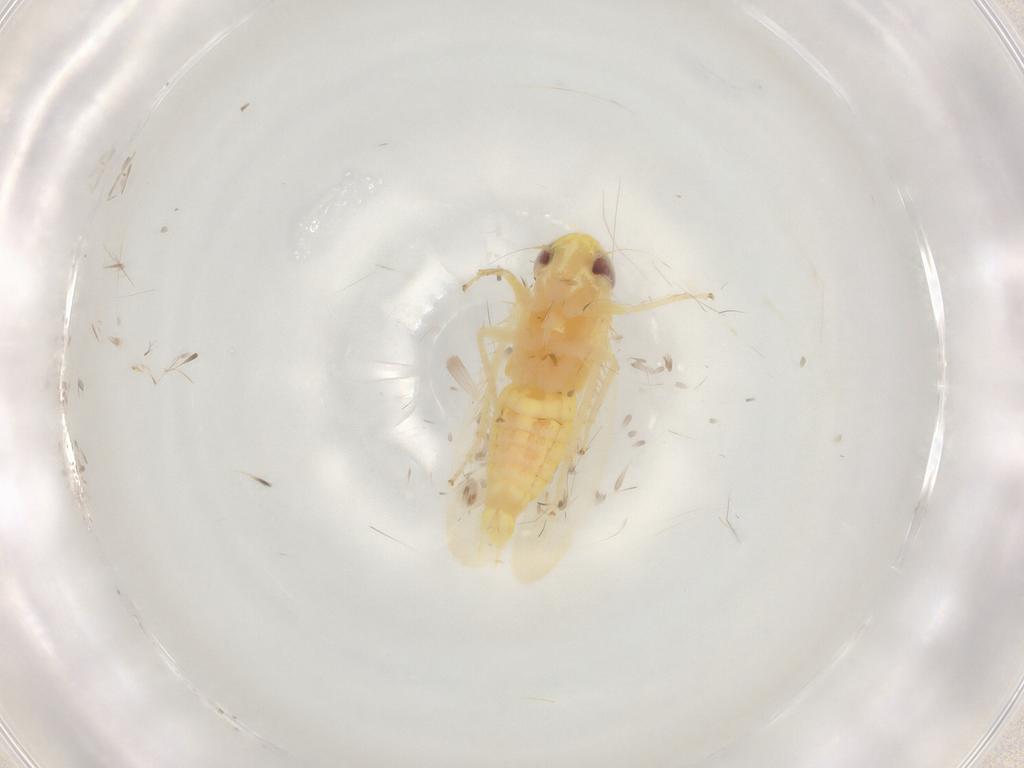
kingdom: Animalia
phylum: Arthropoda
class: Insecta
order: Hemiptera
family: Cicadellidae
